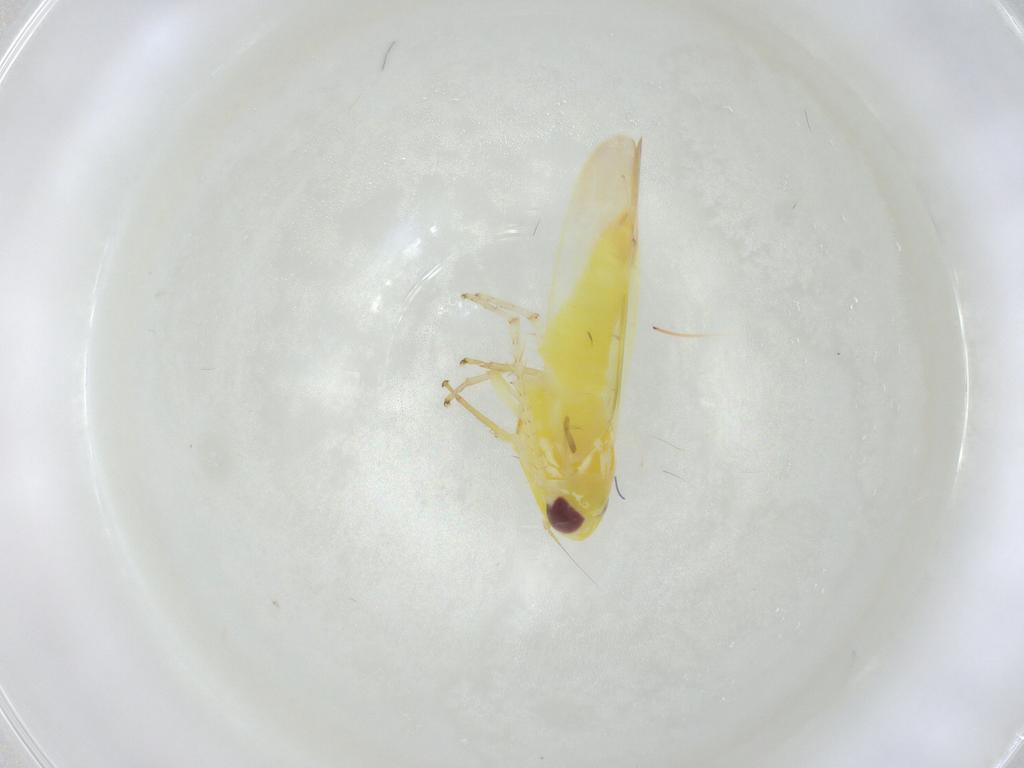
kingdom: Animalia
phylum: Arthropoda
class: Insecta
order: Hemiptera
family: Cicadellidae
